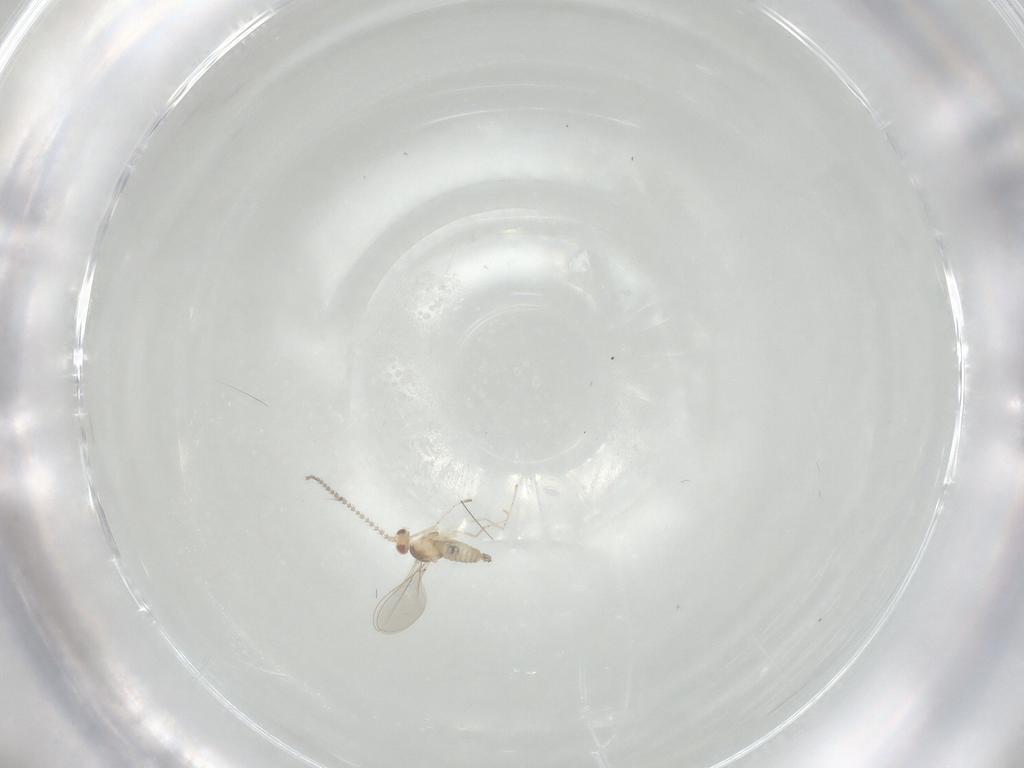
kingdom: Animalia
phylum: Arthropoda
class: Insecta
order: Diptera
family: Cecidomyiidae
